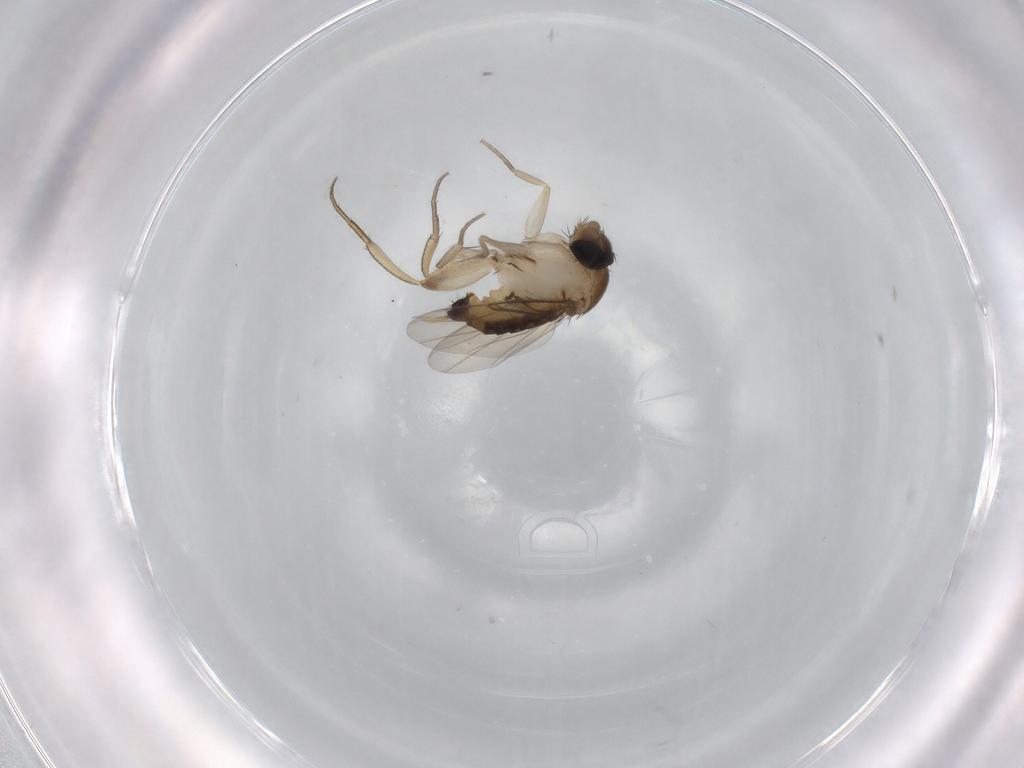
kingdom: Animalia
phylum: Arthropoda
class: Insecta
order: Diptera
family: Phoridae
